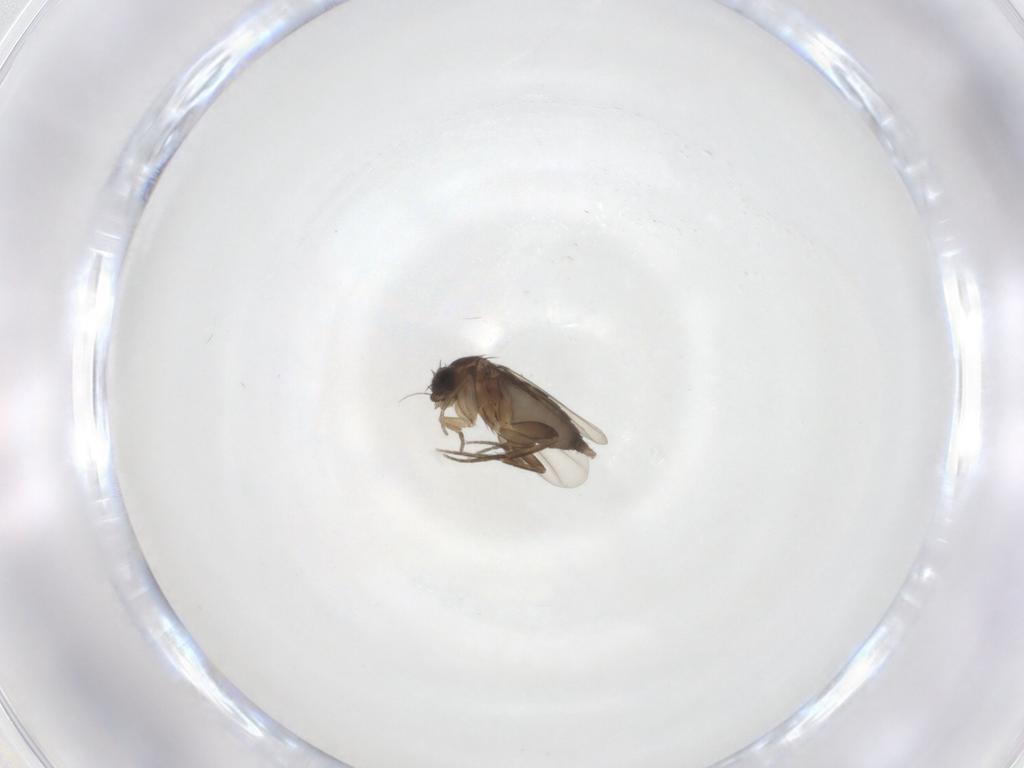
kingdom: Animalia
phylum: Arthropoda
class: Insecta
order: Diptera
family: Phoridae
